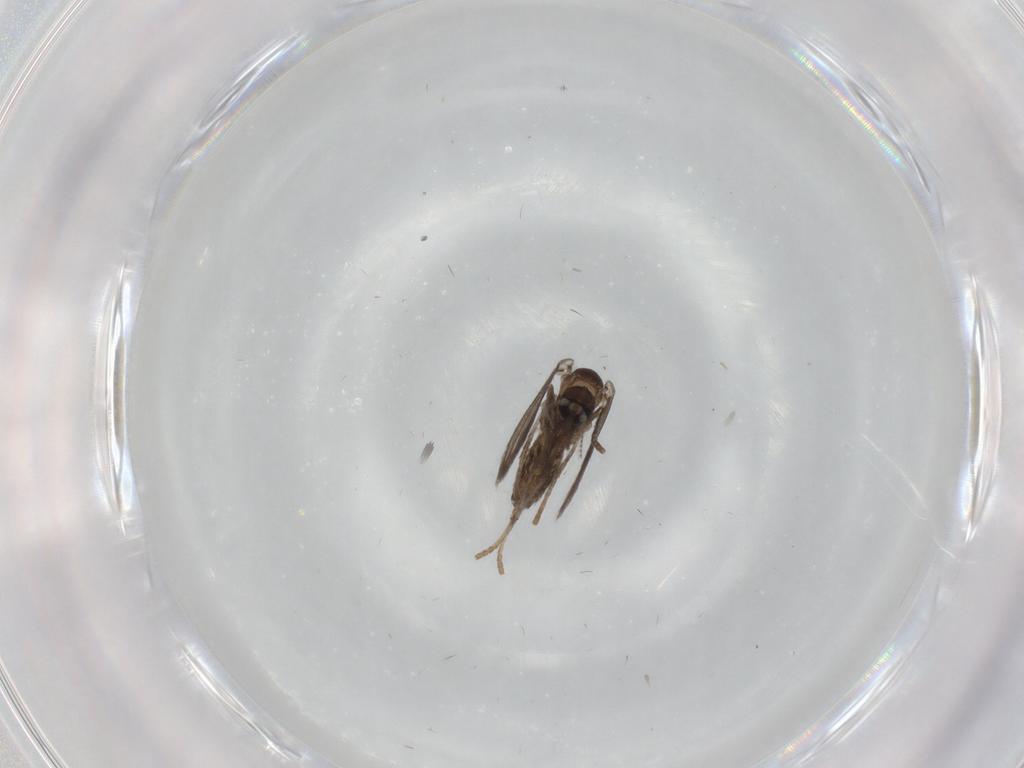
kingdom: Animalia
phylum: Arthropoda
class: Insecta
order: Diptera
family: Psychodidae
